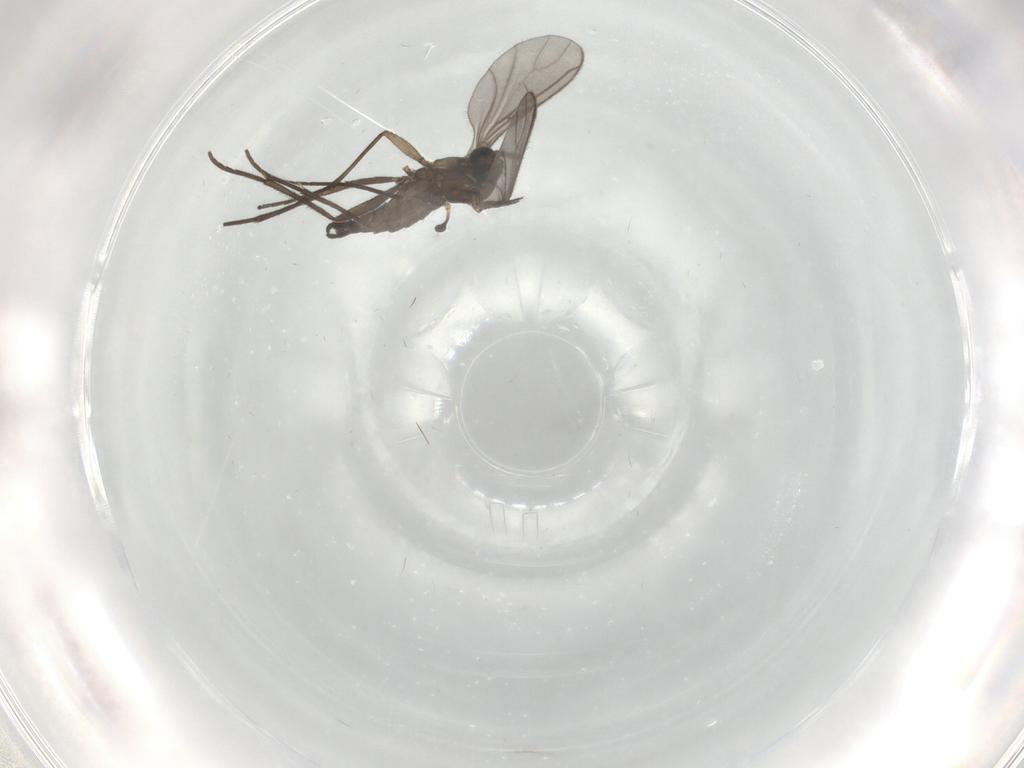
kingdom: Animalia
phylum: Arthropoda
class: Insecta
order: Diptera
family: Sciaridae
